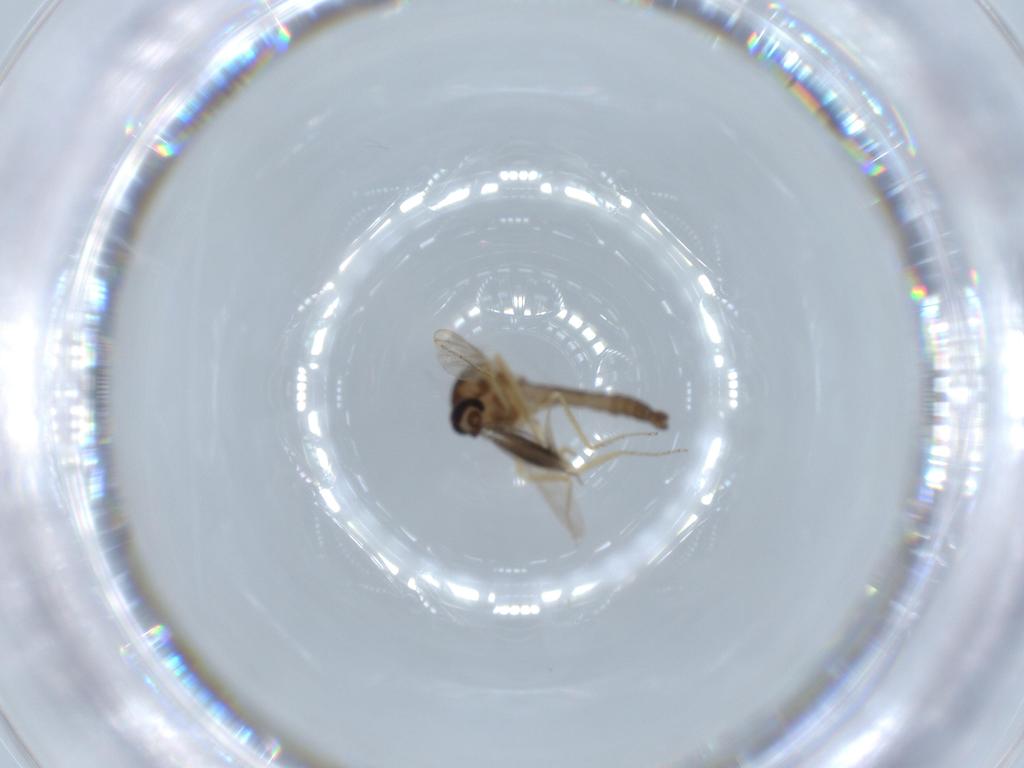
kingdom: Animalia
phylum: Arthropoda
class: Insecta
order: Diptera
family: Ceratopogonidae
